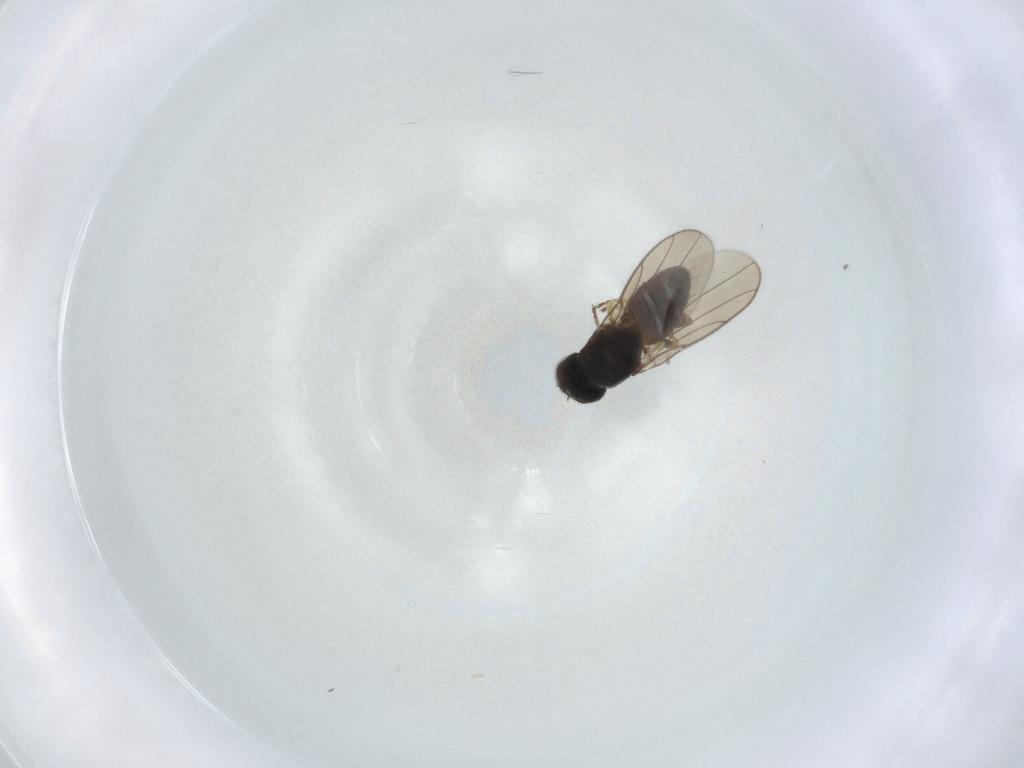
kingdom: Animalia
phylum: Arthropoda
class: Insecta
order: Diptera
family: Chloropidae
